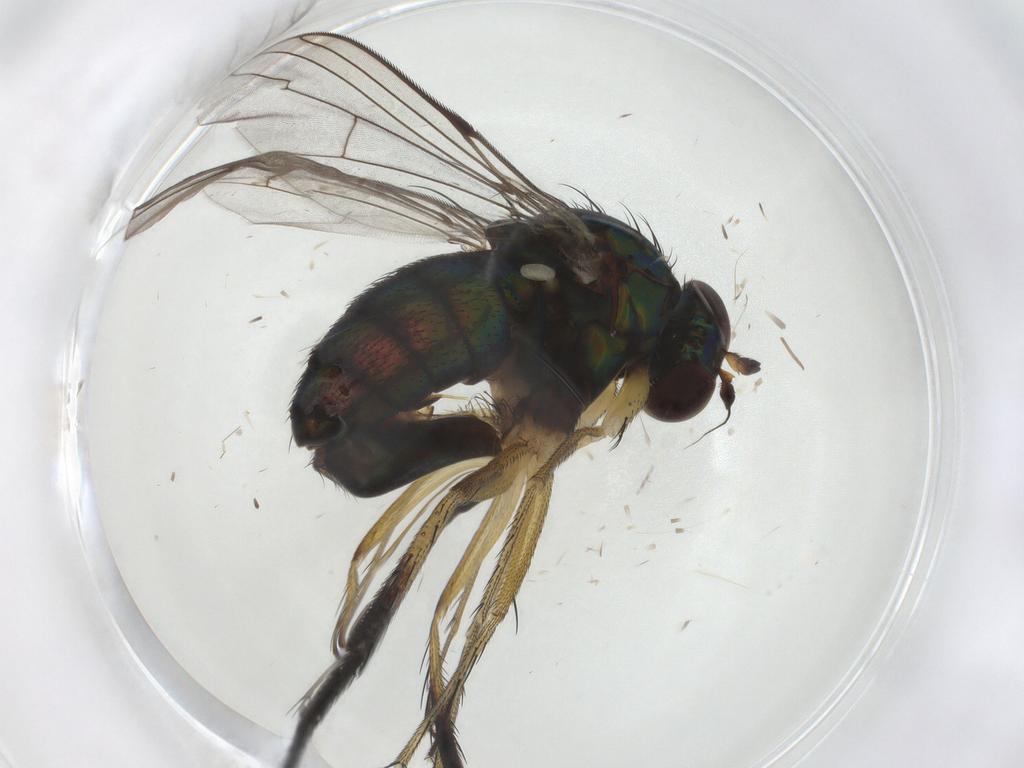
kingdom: Animalia
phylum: Arthropoda
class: Insecta
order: Diptera
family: Dolichopodidae
